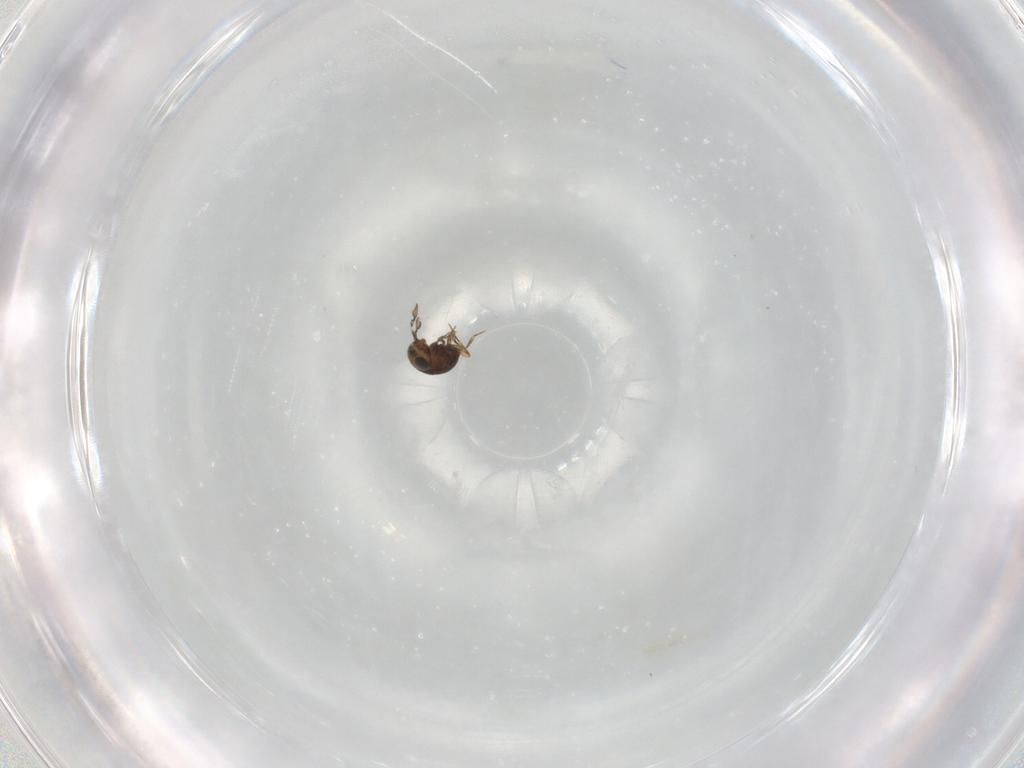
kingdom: Animalia
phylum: Arthropoda
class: Insecta
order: Hymenoptera
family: Scelionidae
